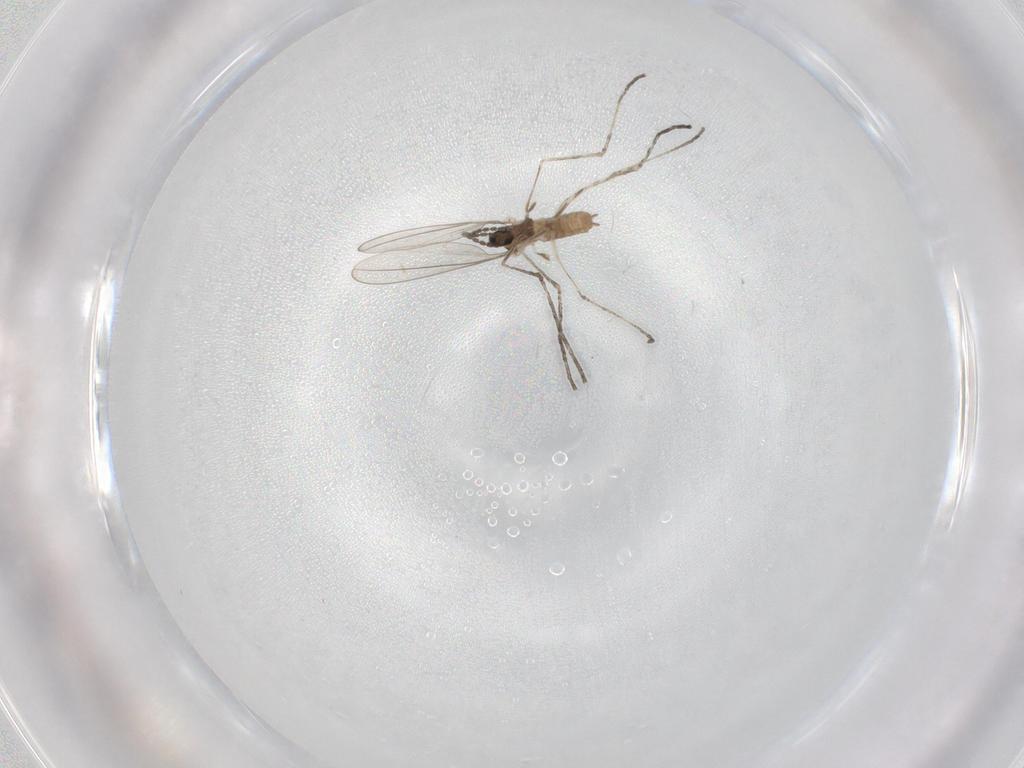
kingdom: Animalia
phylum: Arthropoda
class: Insecta
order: Diptera
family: Cecidomyiidae
